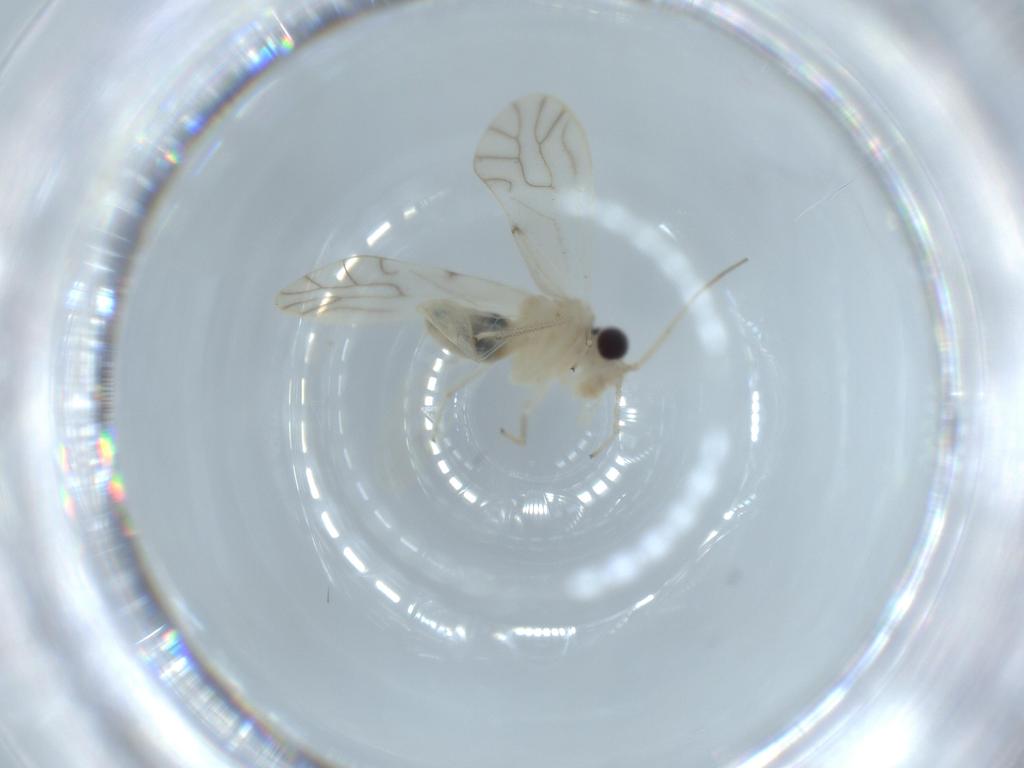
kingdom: Animalia
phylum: Arthropoda
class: Insecta
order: Psocodea
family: Caeciliusidae
